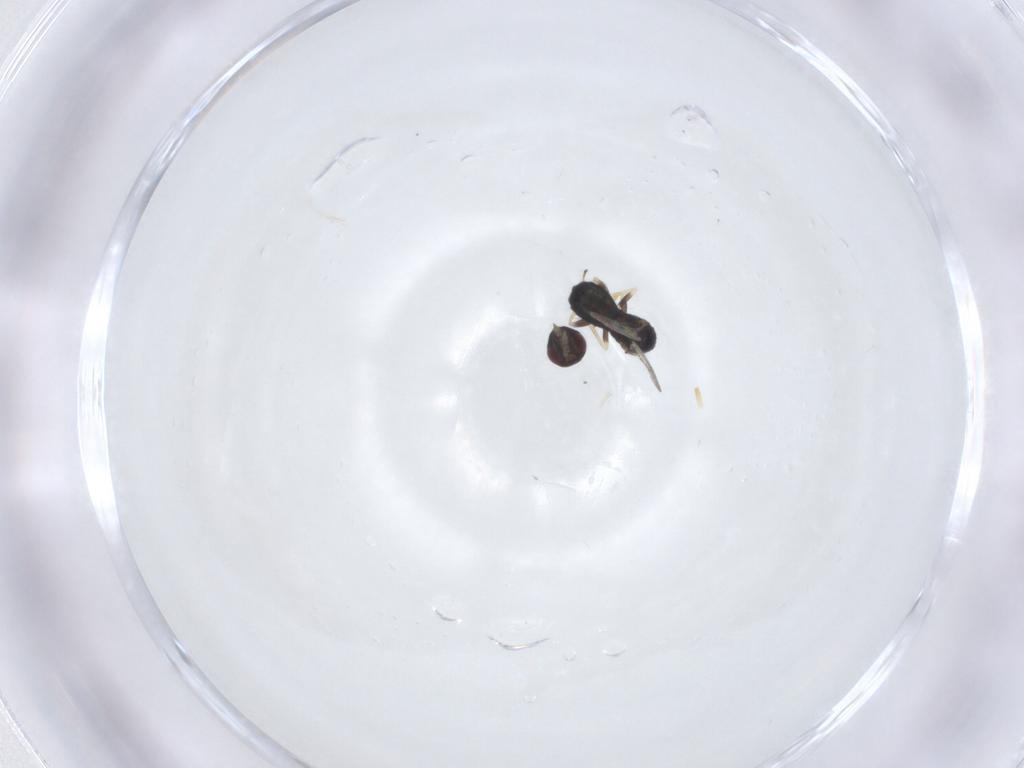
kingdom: Animalia
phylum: Arthropoda
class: Insecta
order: Hymenoptera
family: Eulophidae
